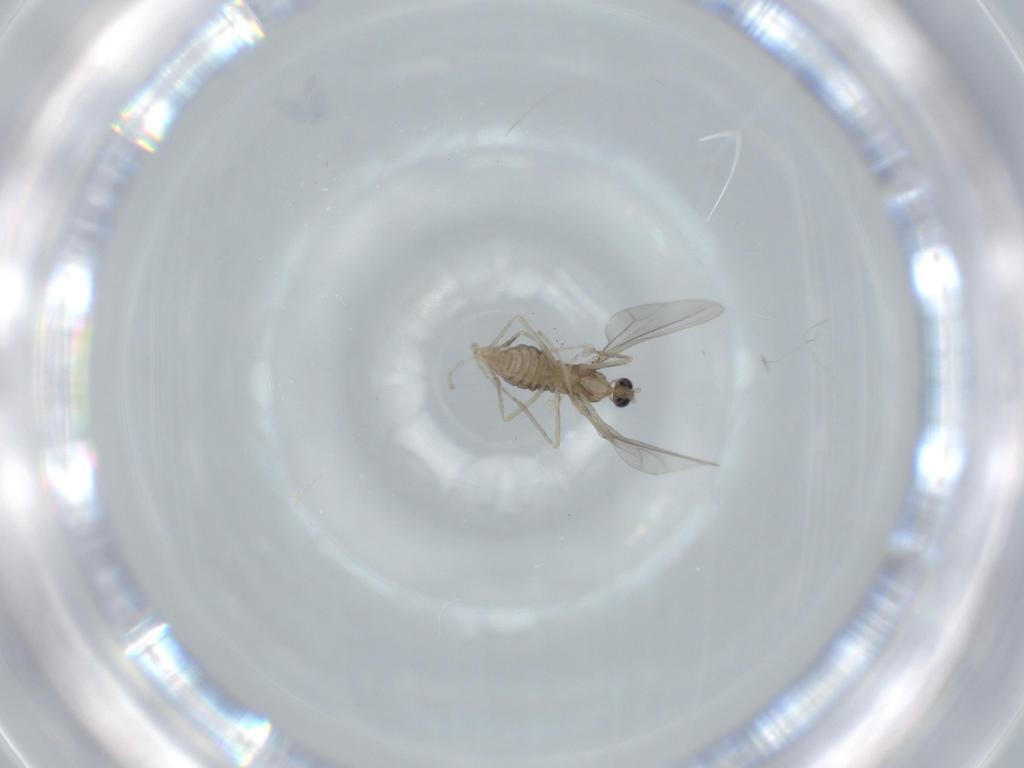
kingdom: Animalia
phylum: Arthropoda
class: Insecta
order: Diptera
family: Cecidomyiidae
